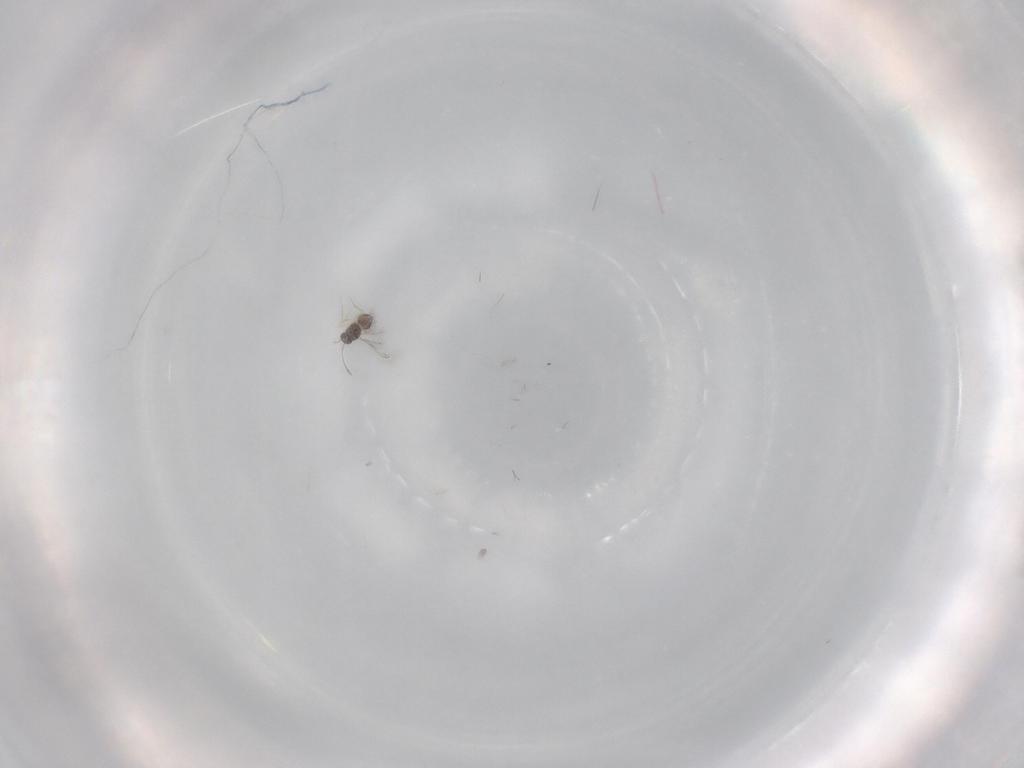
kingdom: Animalia
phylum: Arthropoda
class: Insecta
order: Hymenoptera
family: Mymaridae
